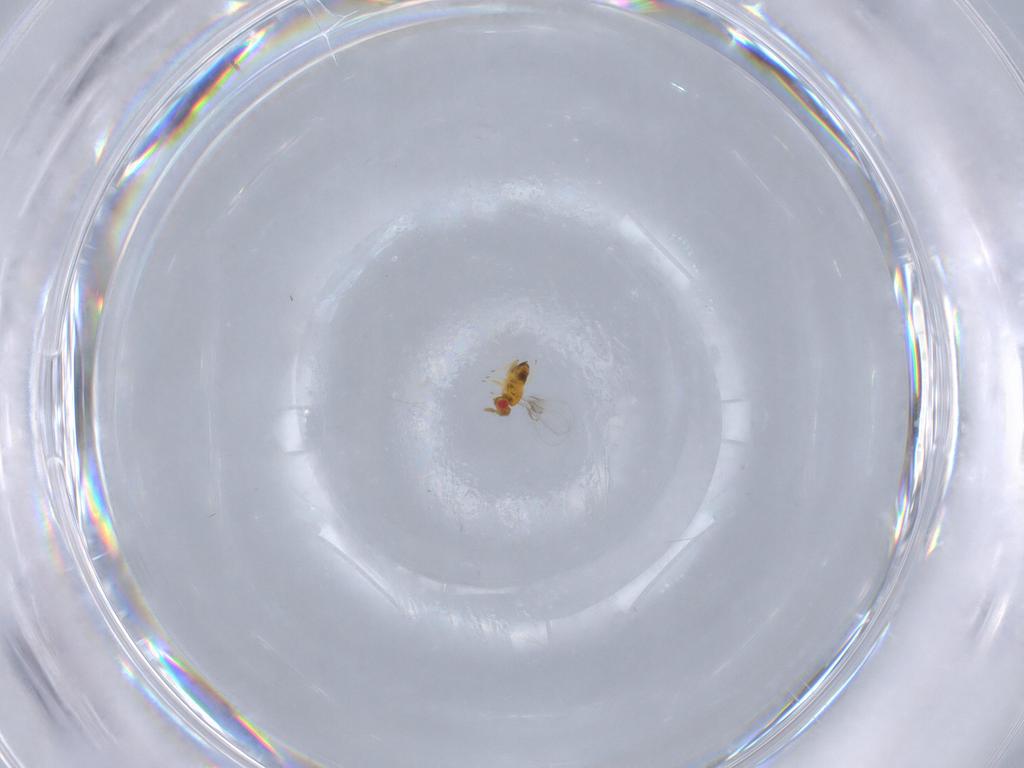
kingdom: Animalia
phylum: Arthropoda
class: Insecta
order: Hymenoptera
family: Trichogrammatidae
